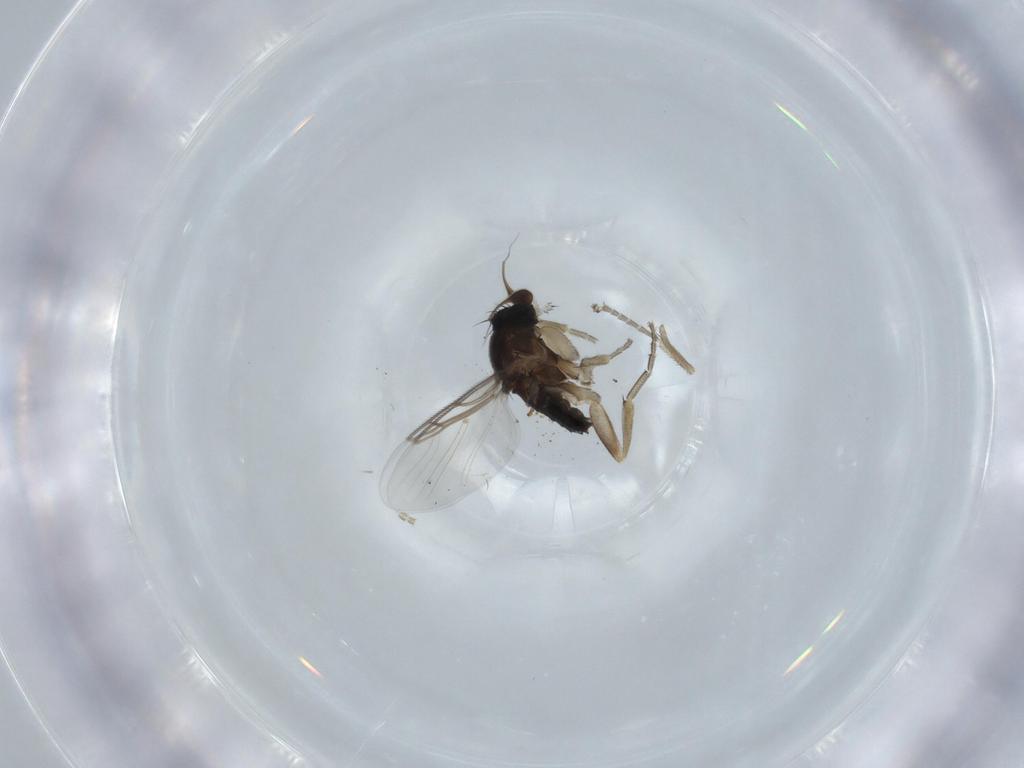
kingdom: Animalia
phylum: Arthropoda
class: Insecta
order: Diptera
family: Phoridae
